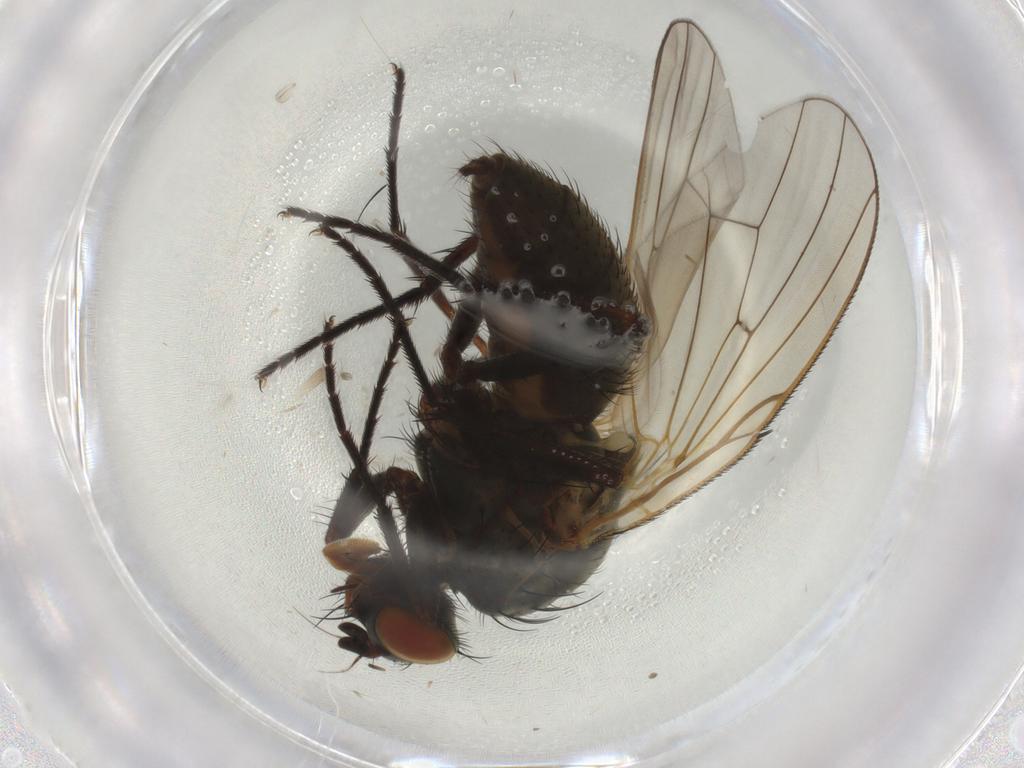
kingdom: Animalia
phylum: Arthropoda
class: Insecta
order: Diptera
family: Anthomyiidae
